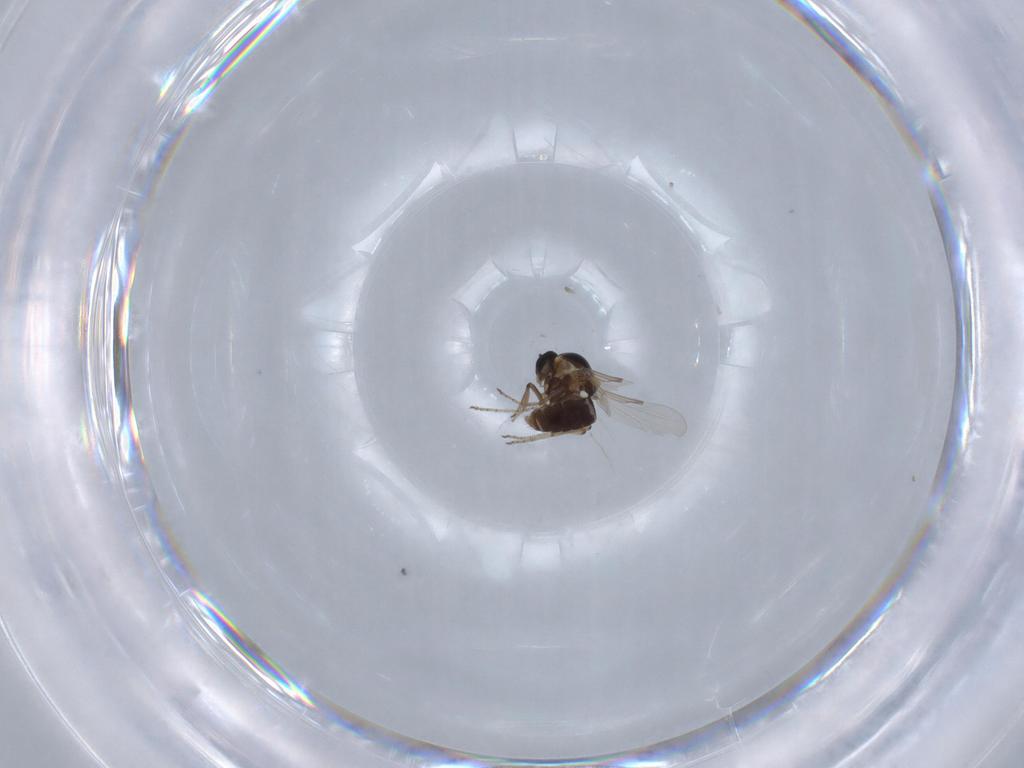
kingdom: Animalia
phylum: Arthropoda
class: Insecta
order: Diptera
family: Ceratopogonidae
